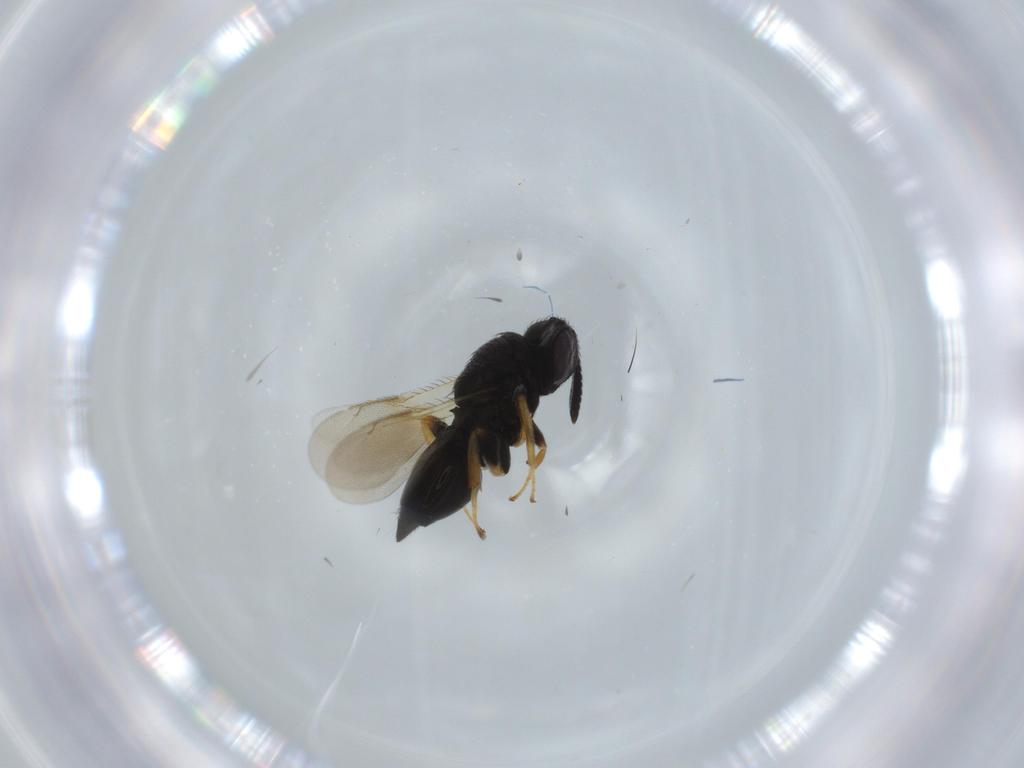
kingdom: Animalia
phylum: Arthropoda
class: Insecta
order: Hymenoptera
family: Pteromalidae
